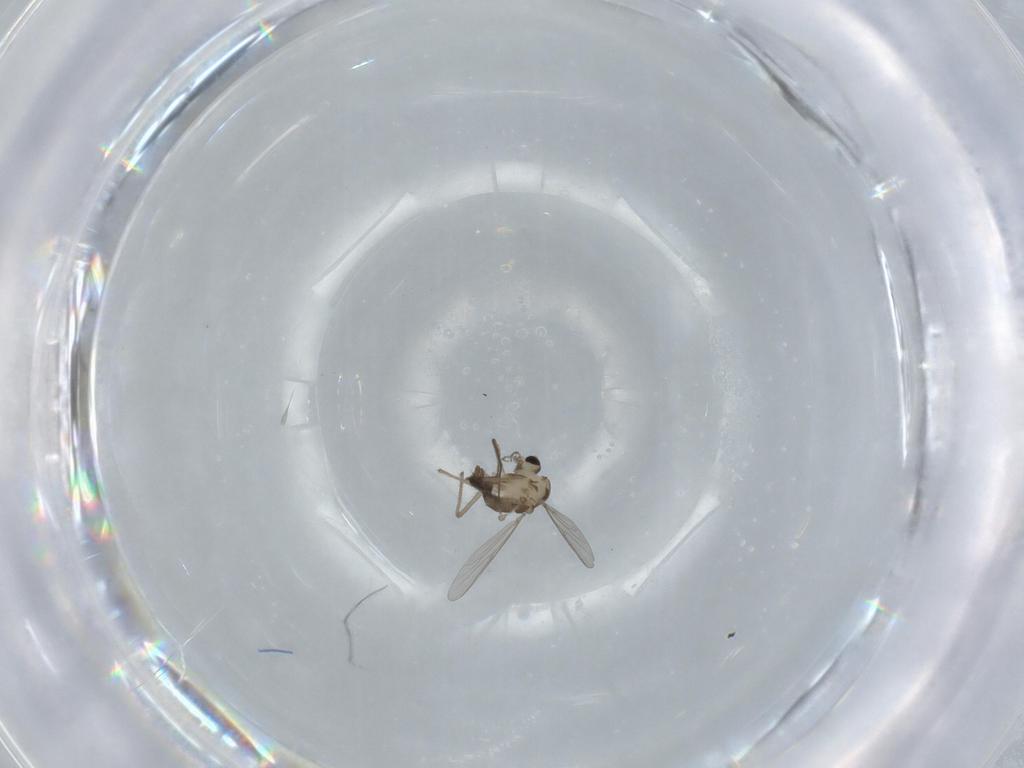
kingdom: Animalia
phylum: Arthropoda
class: Insecta
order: Diptera
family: Chironomidae
